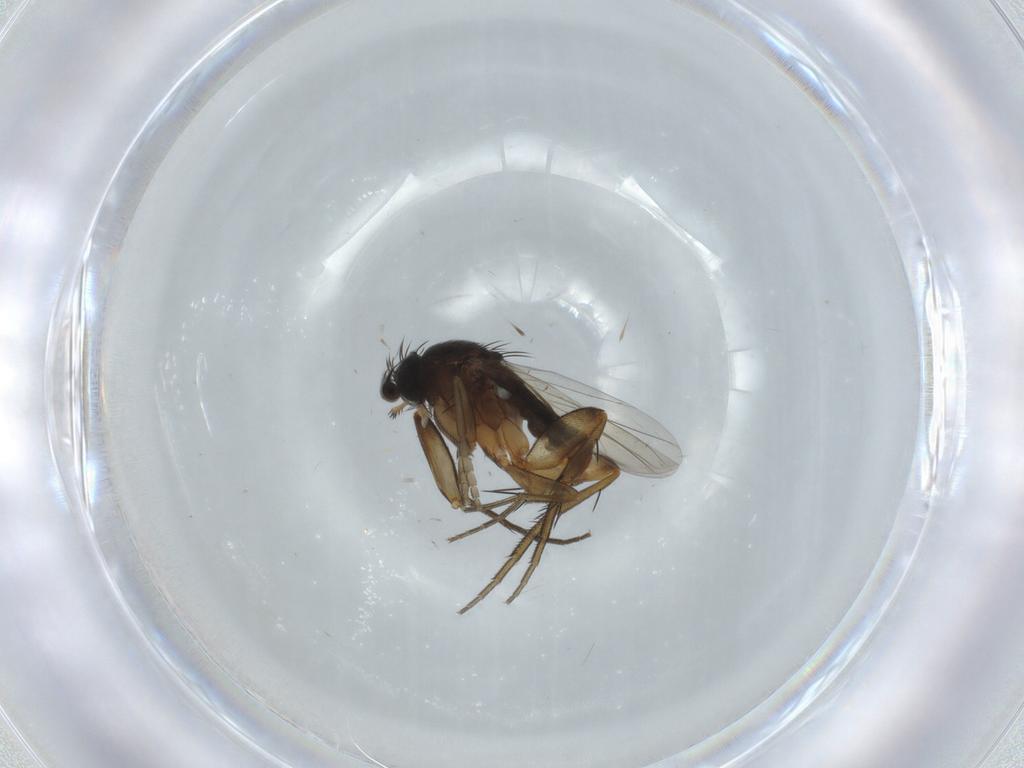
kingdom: Animalia
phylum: Arthropoda
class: Insecta
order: Diptera
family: Phoridae
